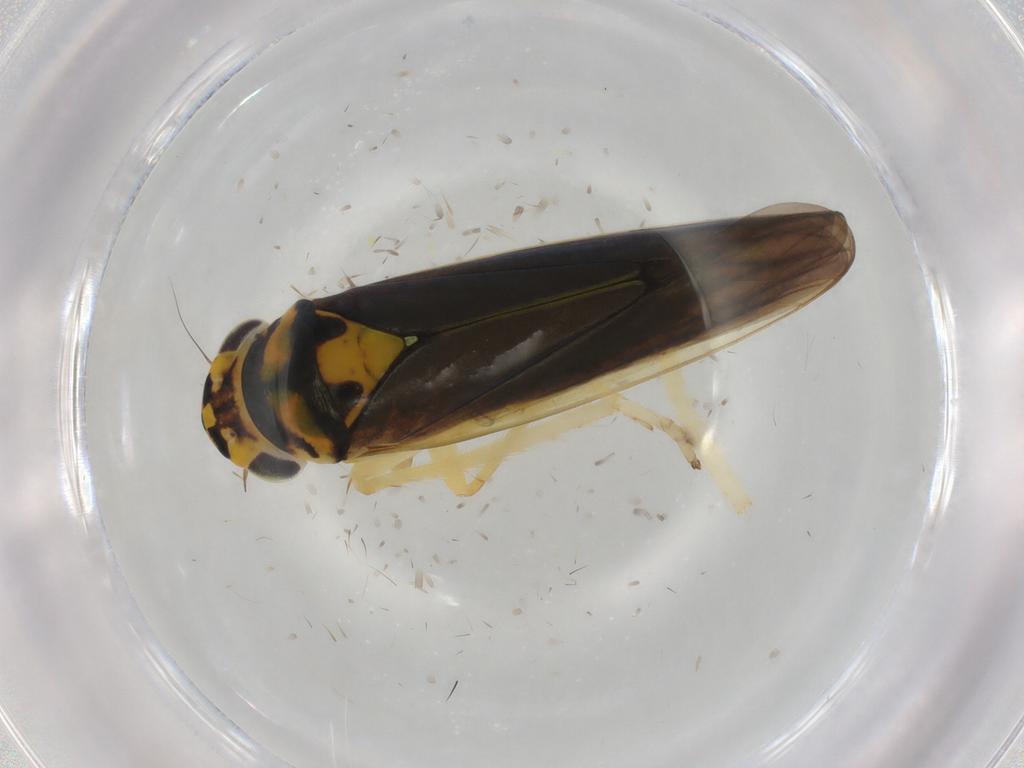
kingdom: Animalia
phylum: Arthropoda
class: Insecta
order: Hemiptera
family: Cicadellidae
